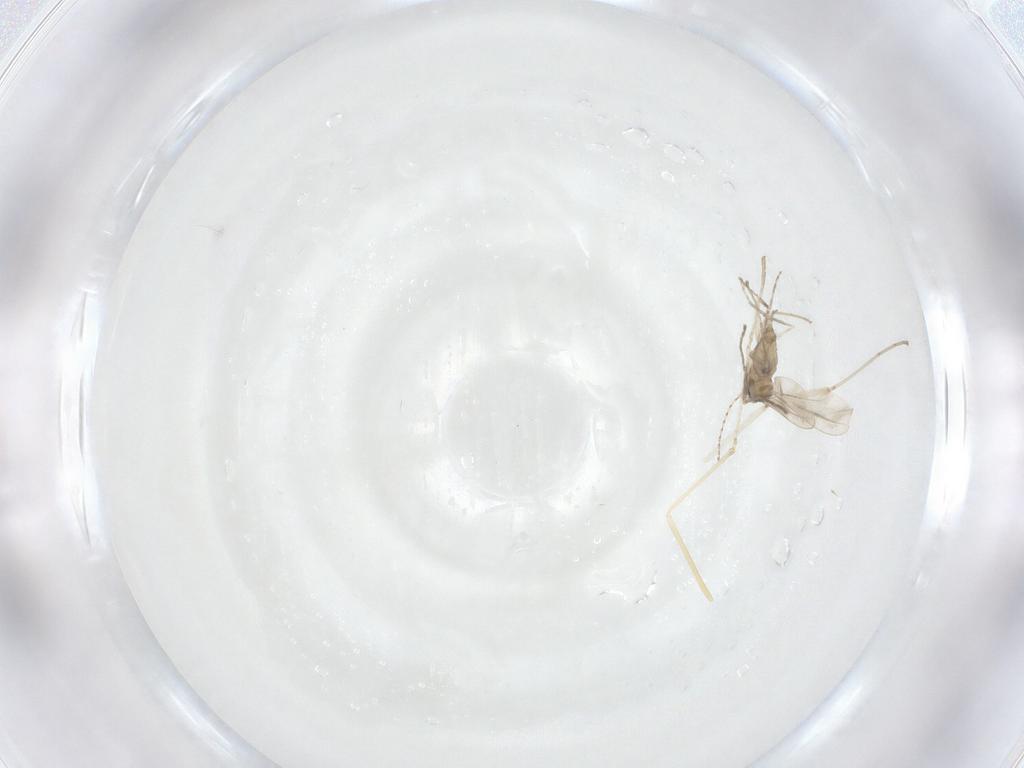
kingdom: Animalia
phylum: Arthropoda
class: Insecta
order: Diptera
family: Cecidomyiidae
